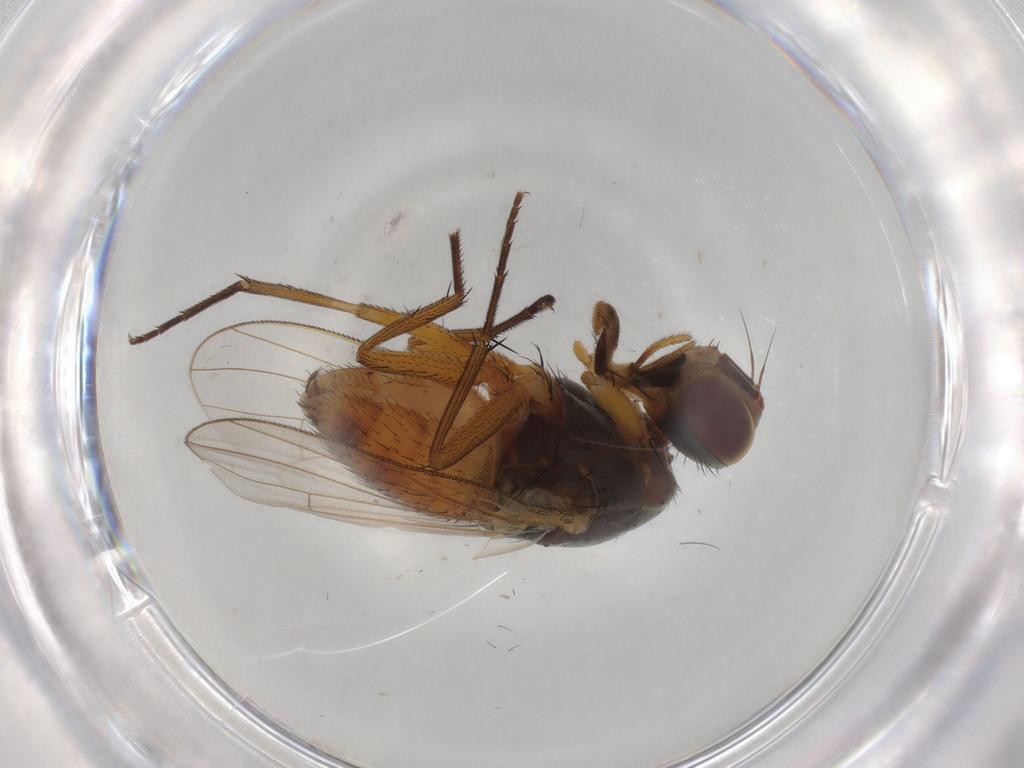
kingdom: Animalia
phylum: Arthropoda
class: Insecta
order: Diptera
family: Muscidae
